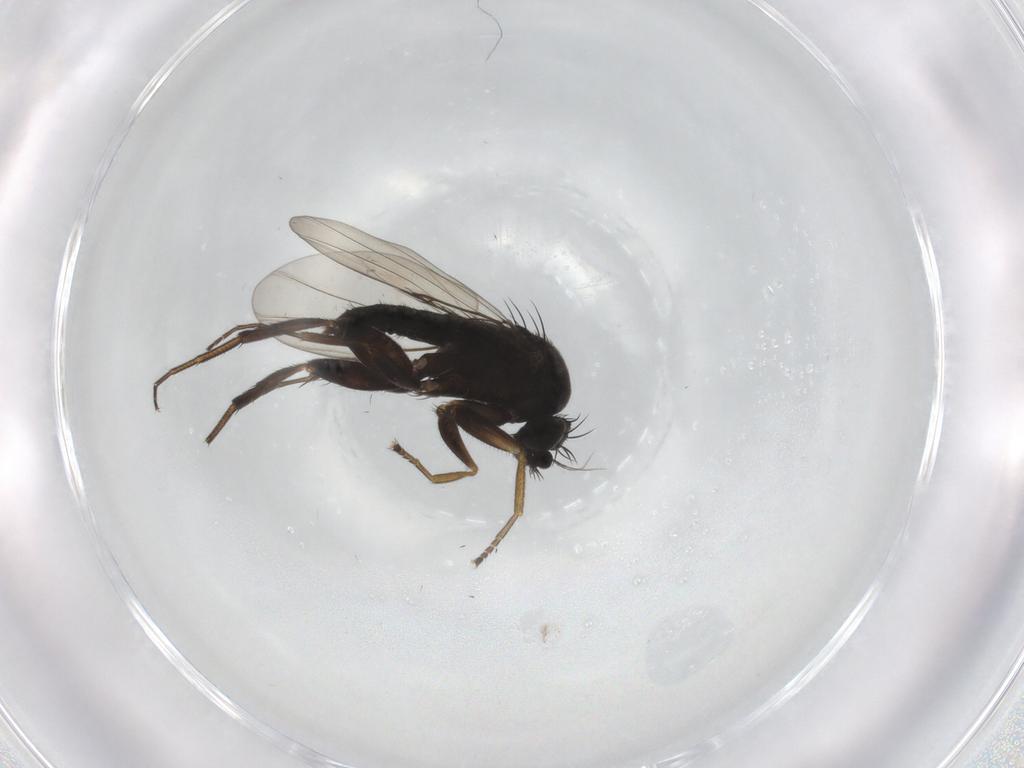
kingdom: Animalia
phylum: Arthropoda
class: Insecta
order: Diptera
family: Phoridae
